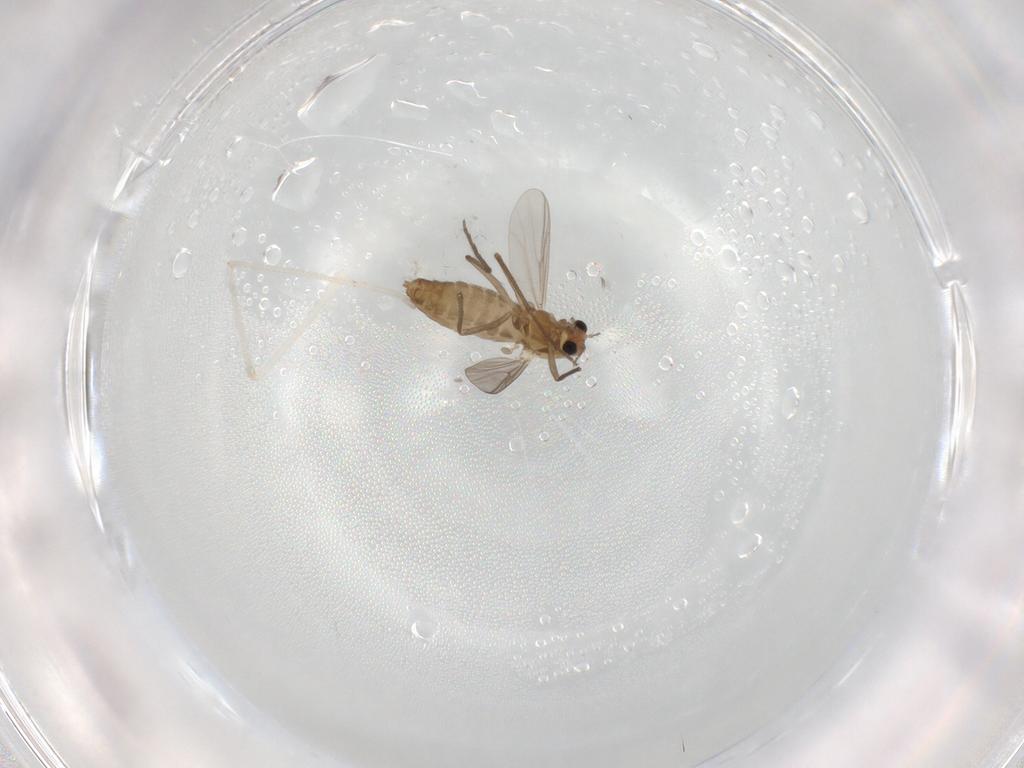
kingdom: Animalia
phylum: Arthropoda
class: Insecta
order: Diptera
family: Chironomidae
